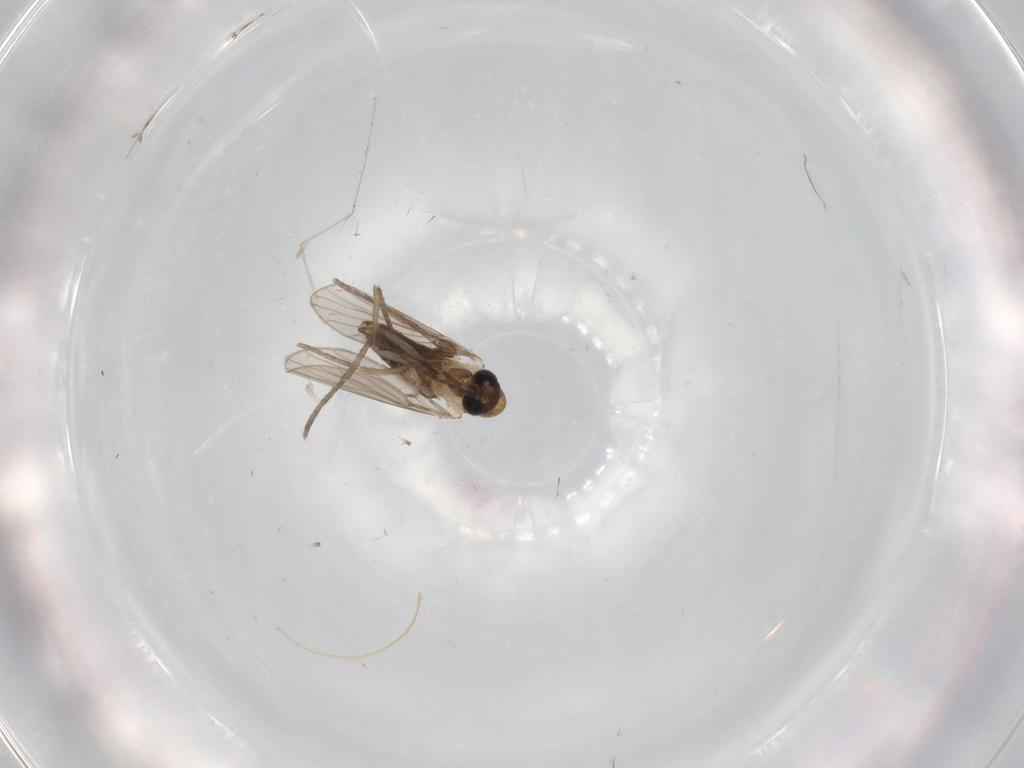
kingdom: Animalia
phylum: Arthropoda
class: Insecta
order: Diptera
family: Psychodidae
